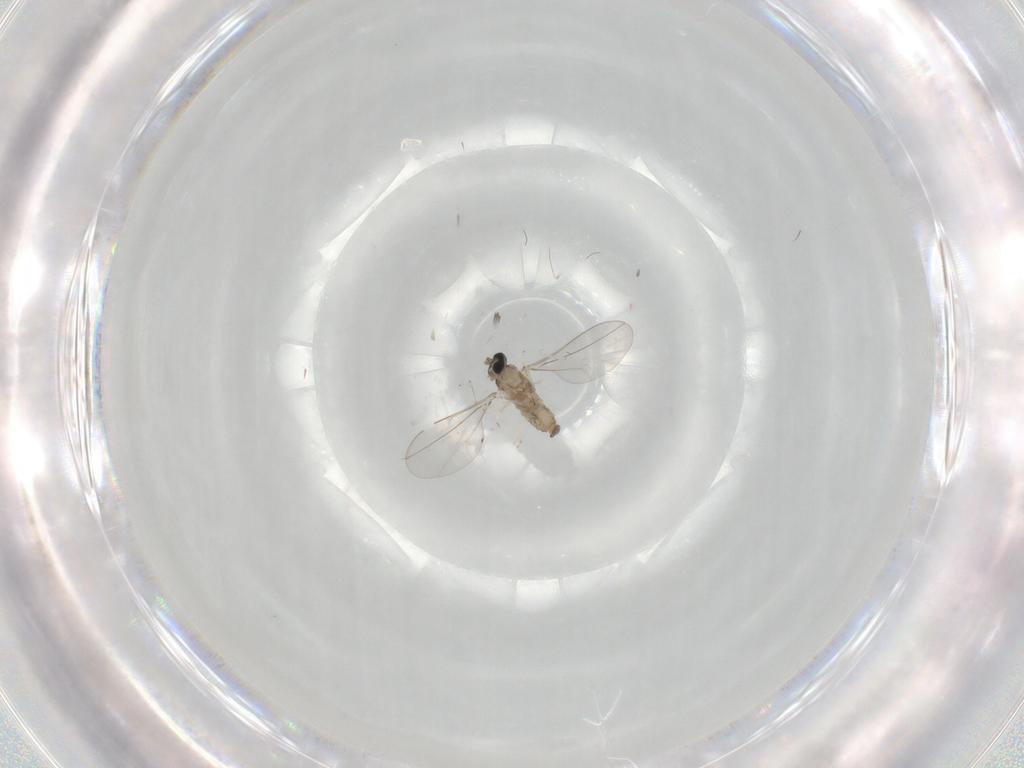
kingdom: Animalia
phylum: Arthropoda
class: Insecta
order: Diptera
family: Cecidomyiidae
